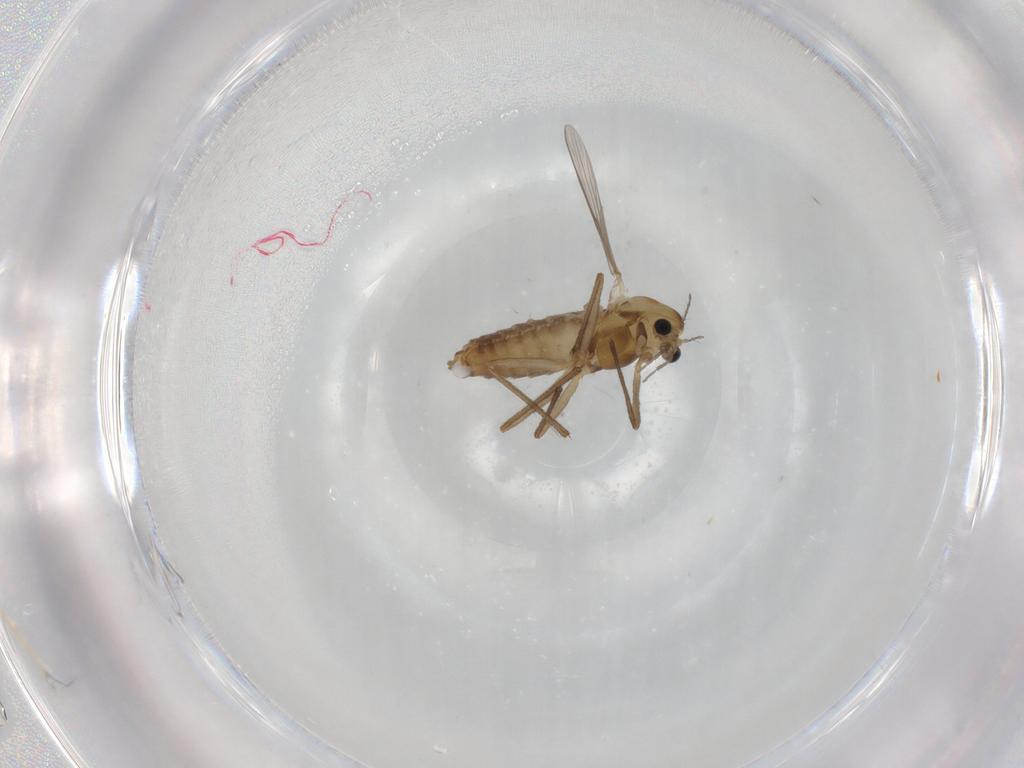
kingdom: Animalia
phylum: Arthropoda
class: Insecta
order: Diptera
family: Chironomidae
